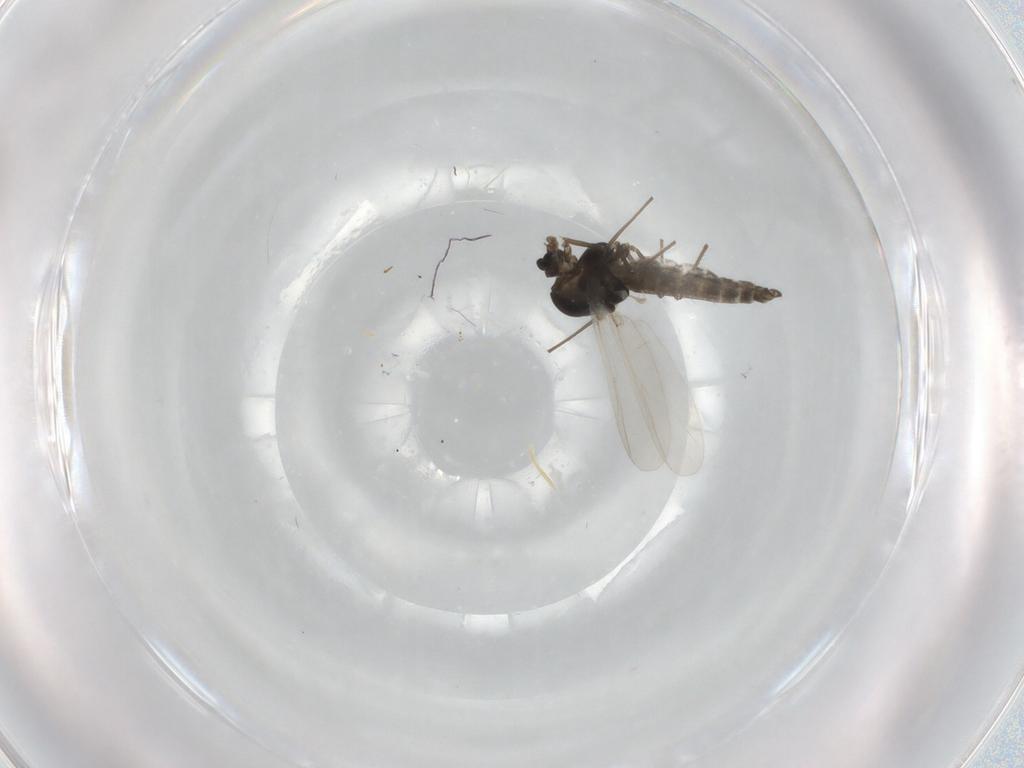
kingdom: Animalia
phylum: Arthropoda
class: Insecta
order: Diptera
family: Chironomidae
